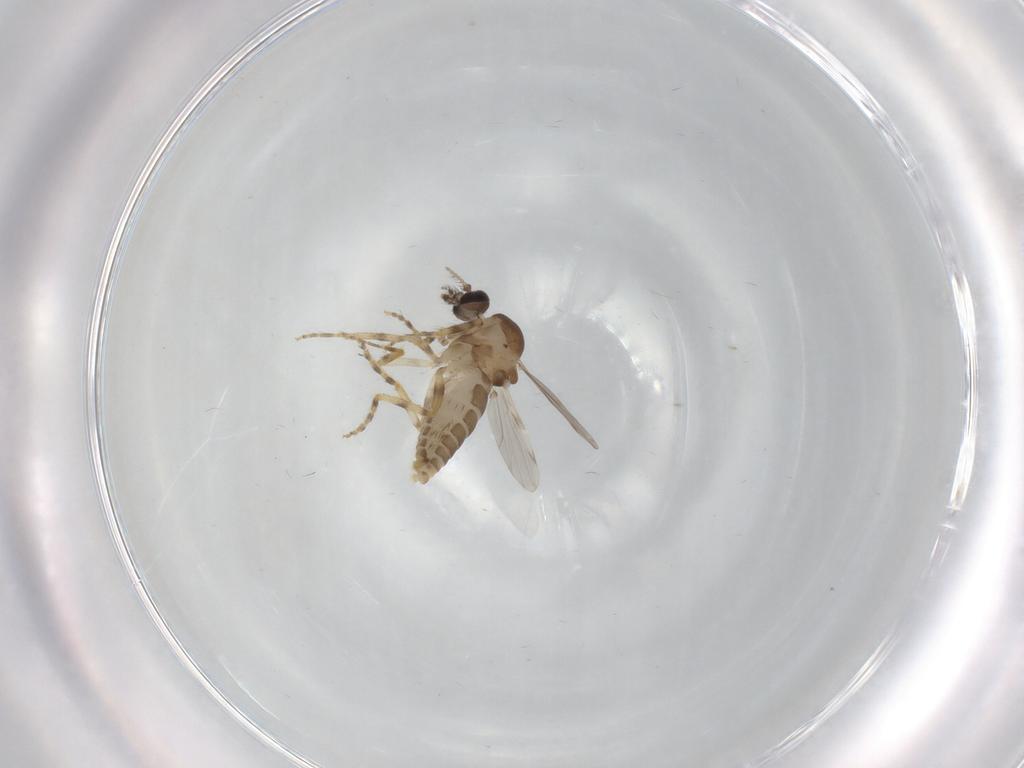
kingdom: Animalia
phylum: Arthropoda
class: Insecta
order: Diptera
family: Ceratopogonidae
